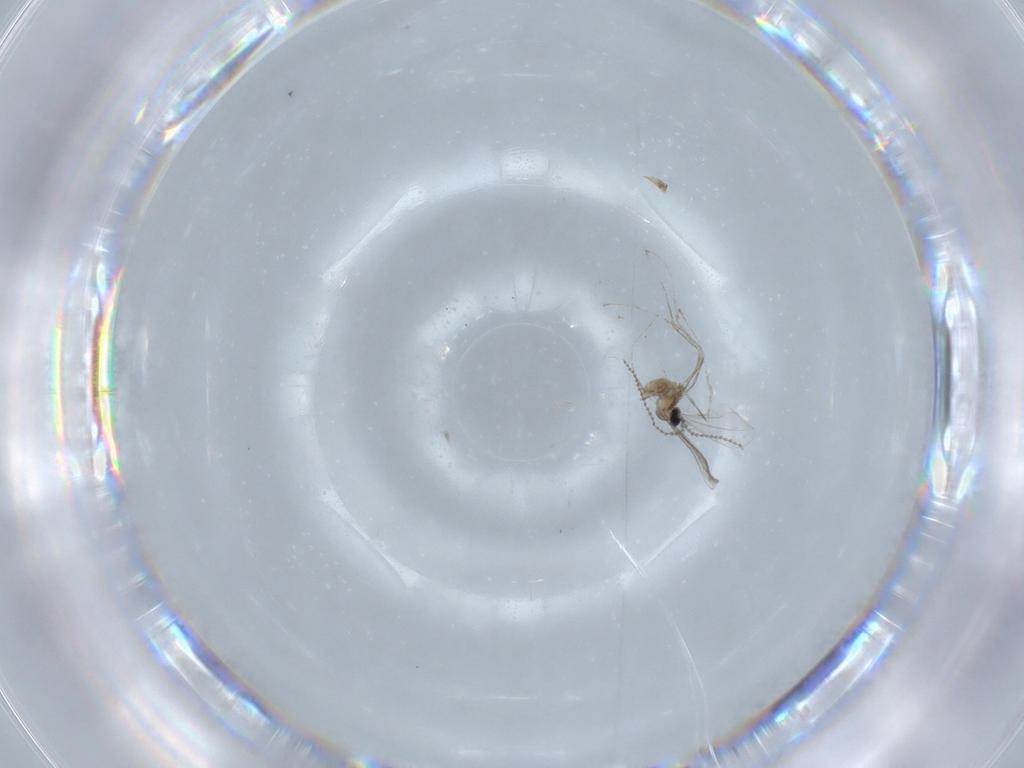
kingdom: Animalia
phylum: Arthropoda
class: Insecta
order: Diptera
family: Cecidomyiidae
